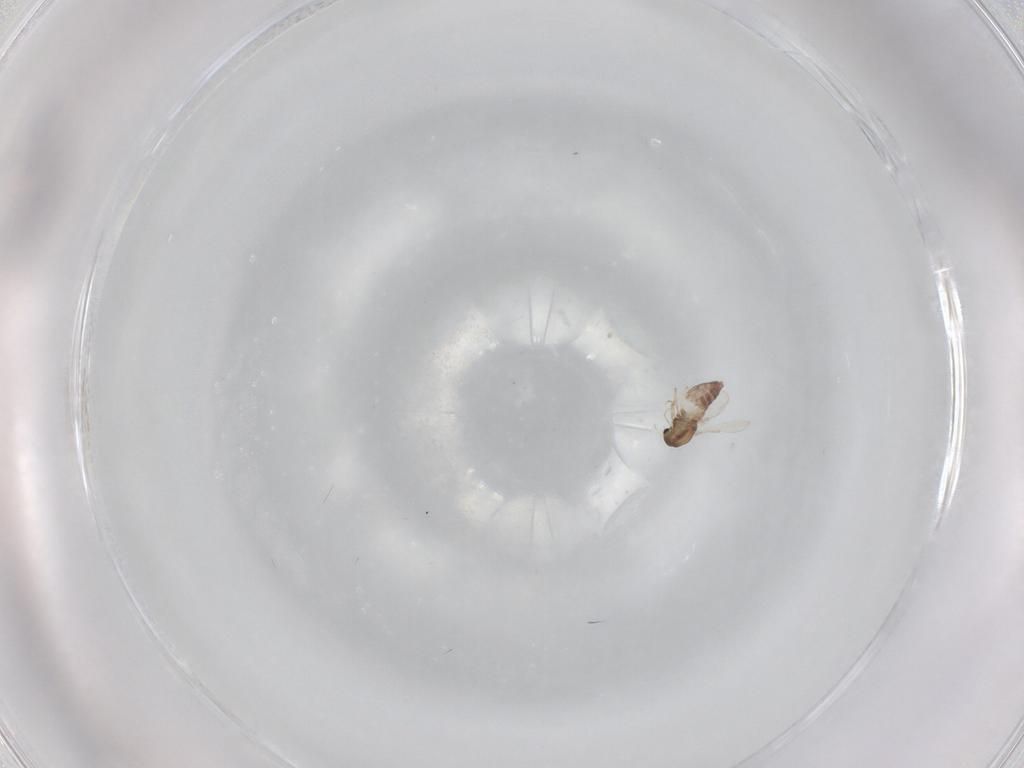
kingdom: Animalia
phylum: Arthropoda
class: Insecta
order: Diptera
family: Chironomidae
